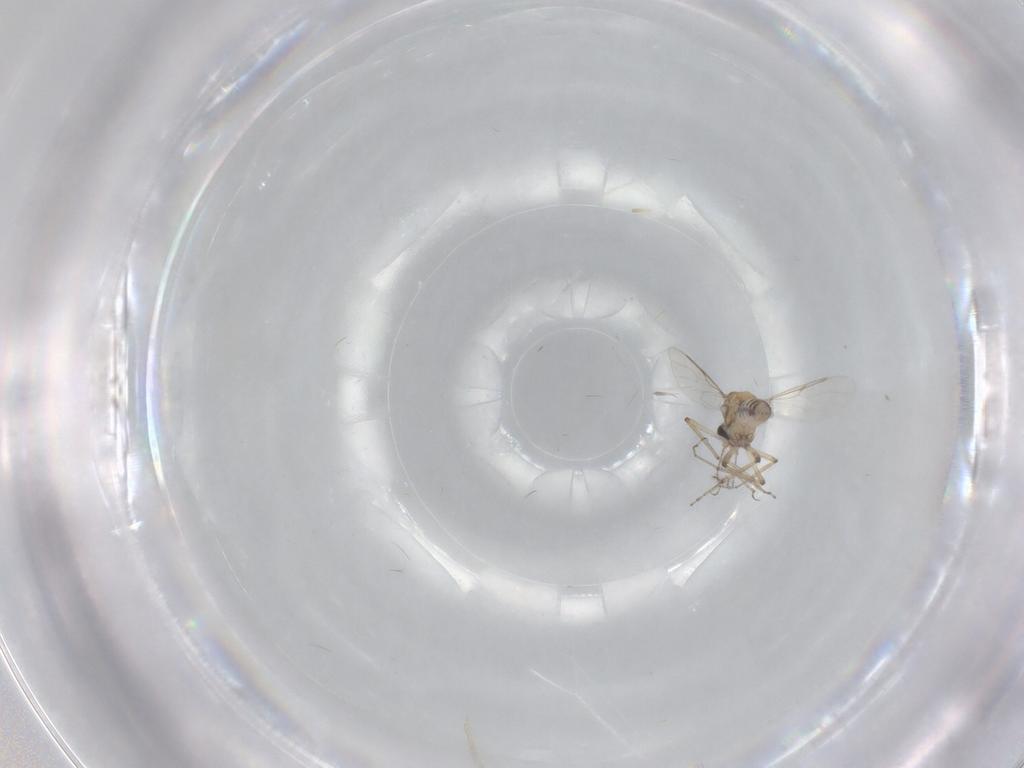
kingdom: Animalia
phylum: Arthropoda
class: Insecta
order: Diptera
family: Ceratopogonidae
